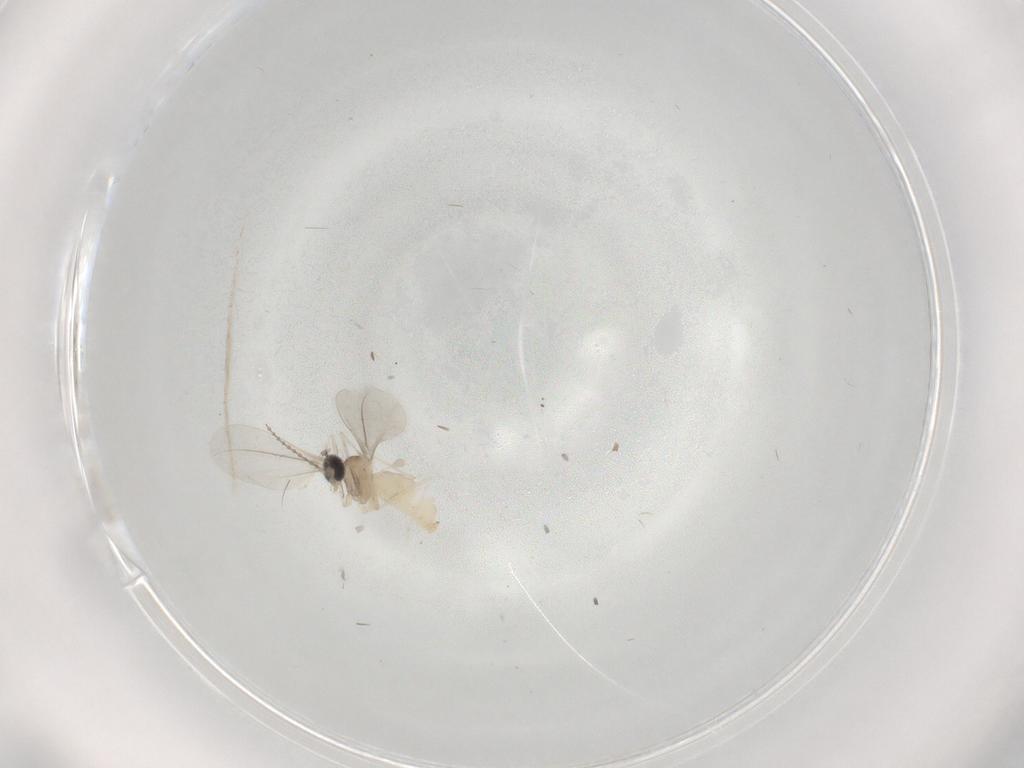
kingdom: Animalia
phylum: Arthropoda
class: Insecta
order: Diptera
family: Cecidomyiidae
